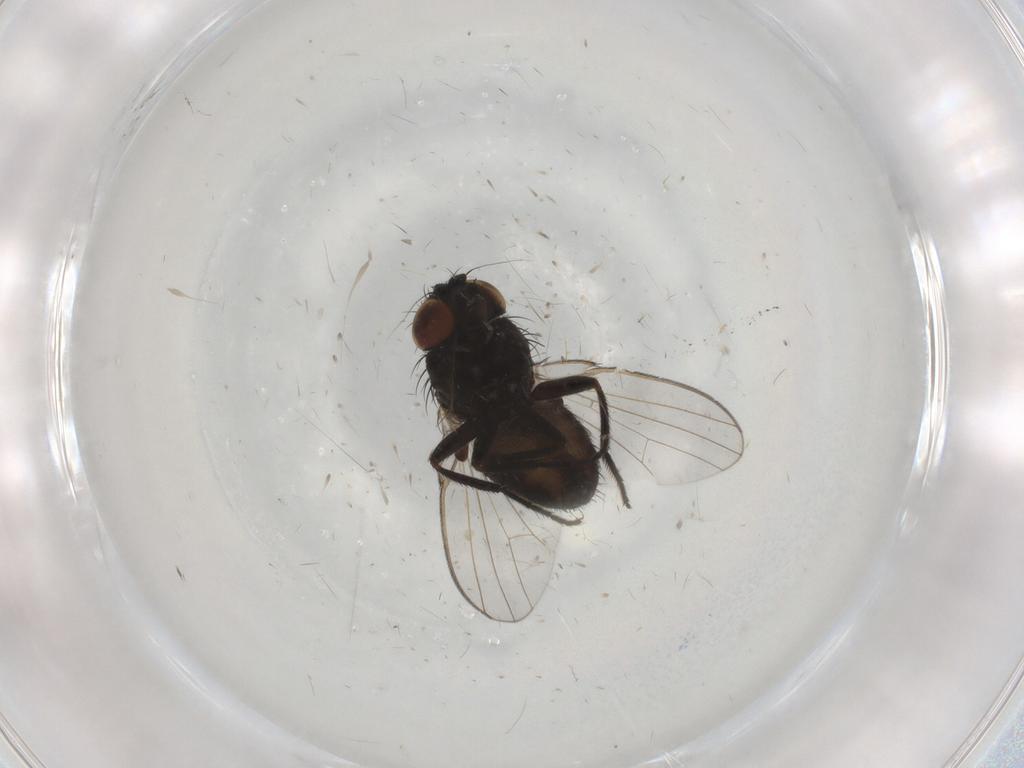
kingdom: Animalia
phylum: Arthropoda
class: Insecta
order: Diptera
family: Milichiidae
